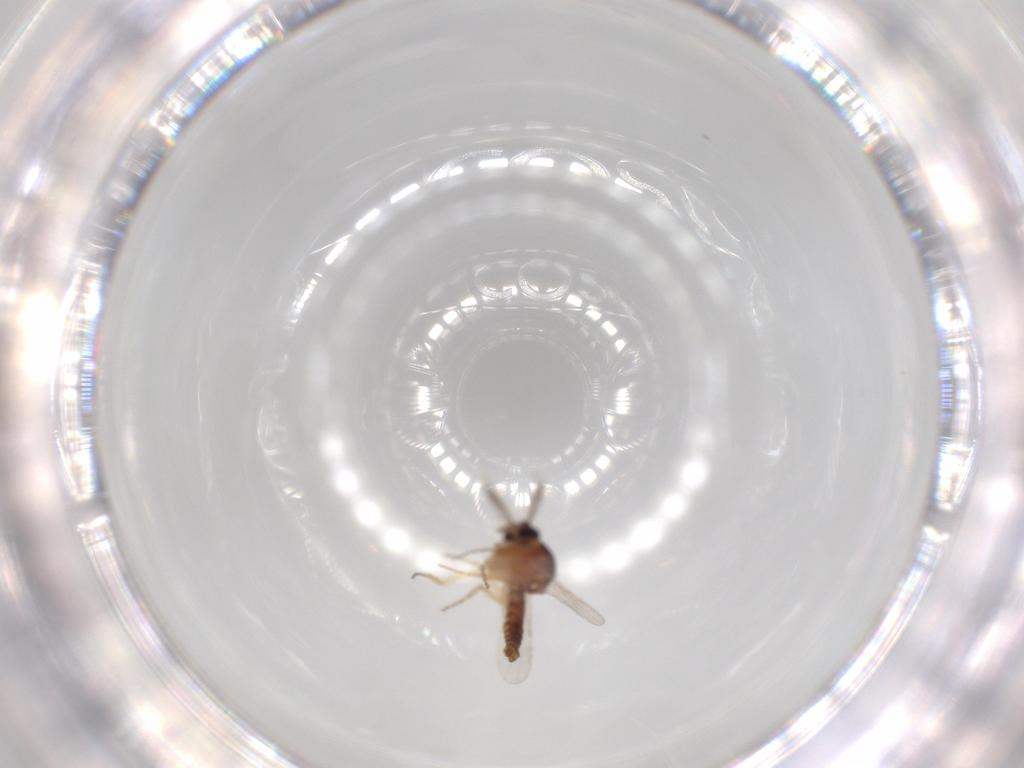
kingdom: Animalia
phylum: Arthropoda
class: Insecta
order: Diptera
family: Ceratopogonidae
